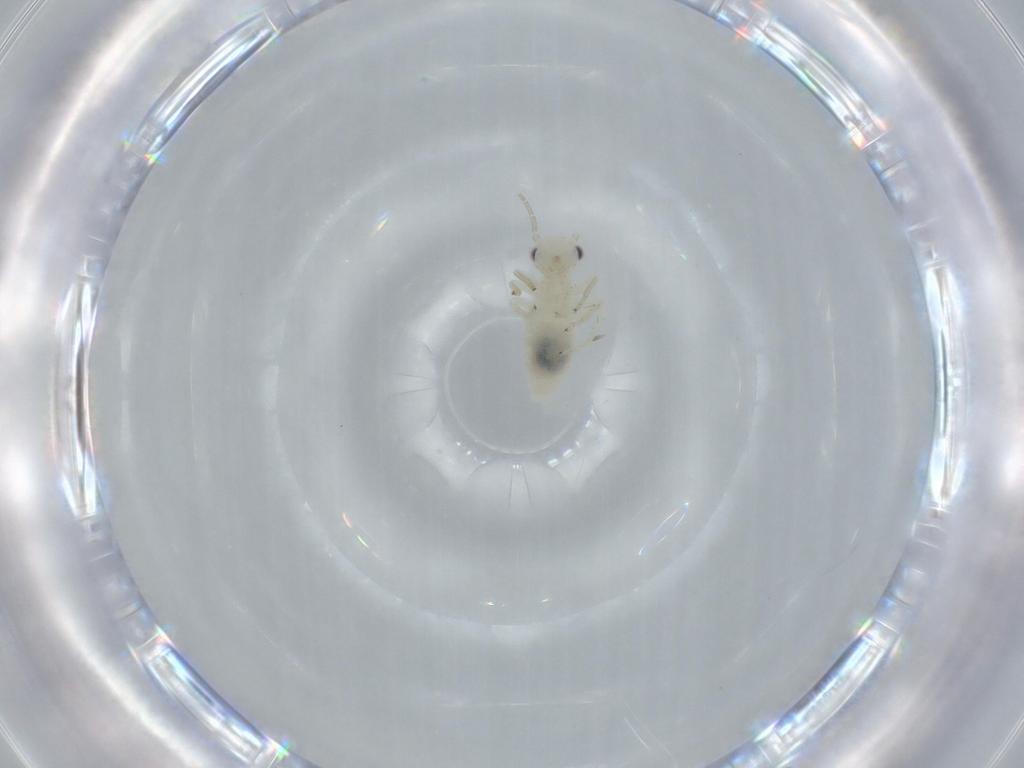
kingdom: Animalia
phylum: Arthropoda
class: Insecta
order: Psocodea
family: Caeciliusidae
